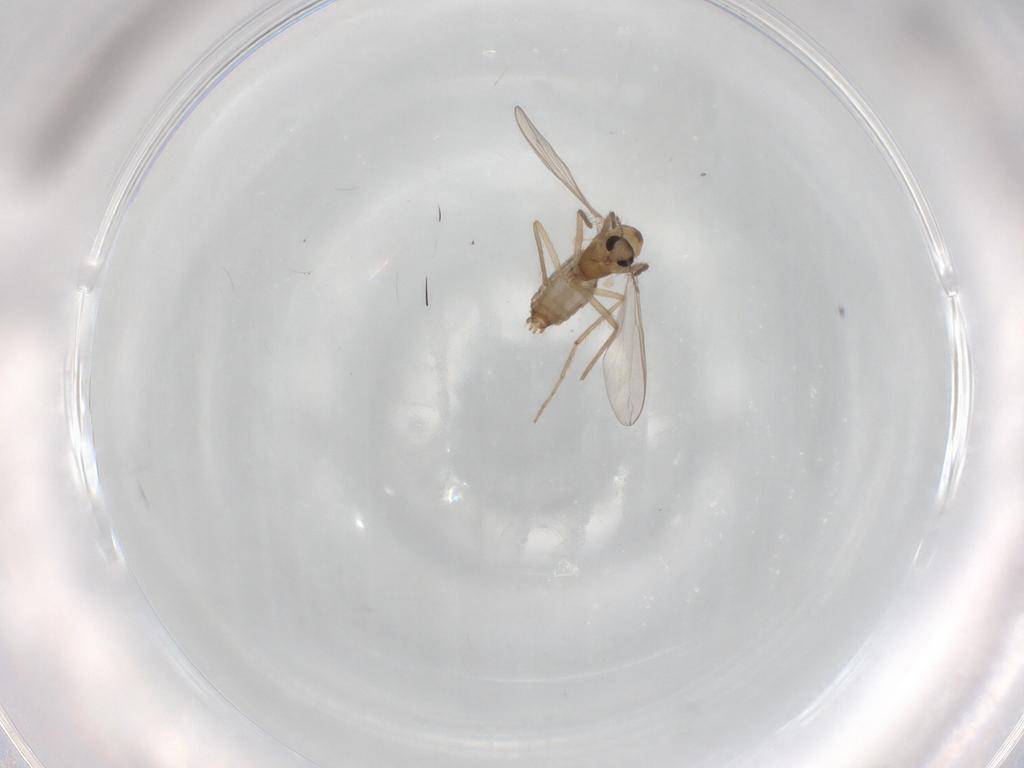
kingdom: Animalia
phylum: Arthropoda
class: Insecta
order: Diptera
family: Chironomidae
